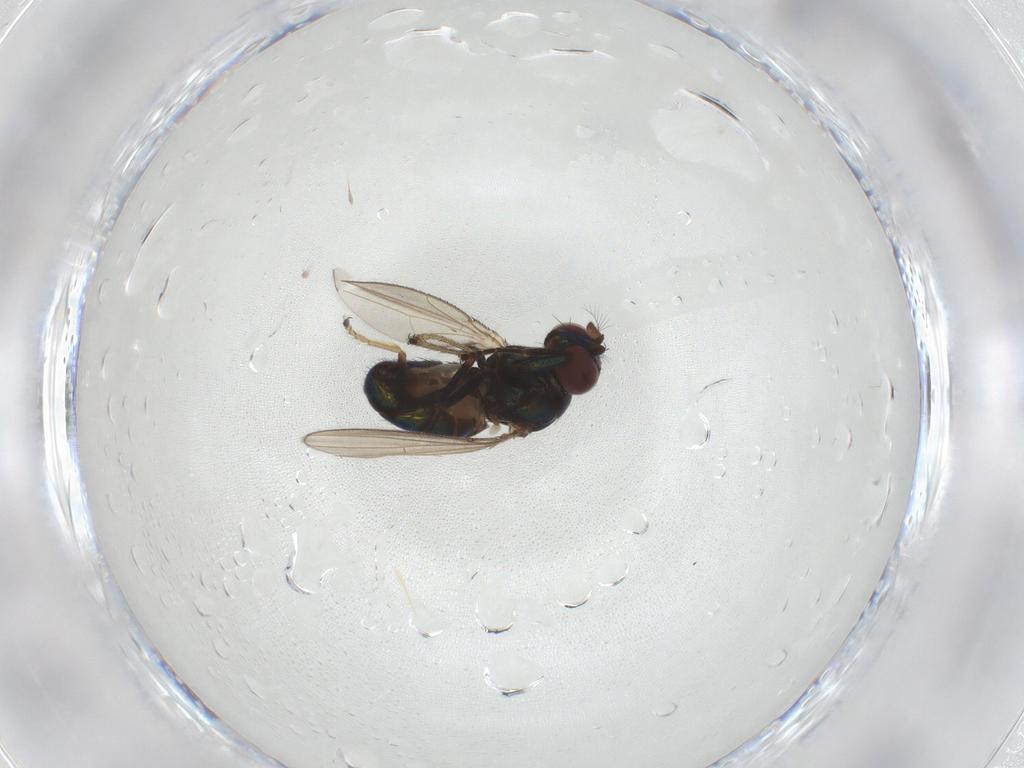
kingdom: Animalia
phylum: Arthropoda
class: Insecta
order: Diptera
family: Ephydridae
